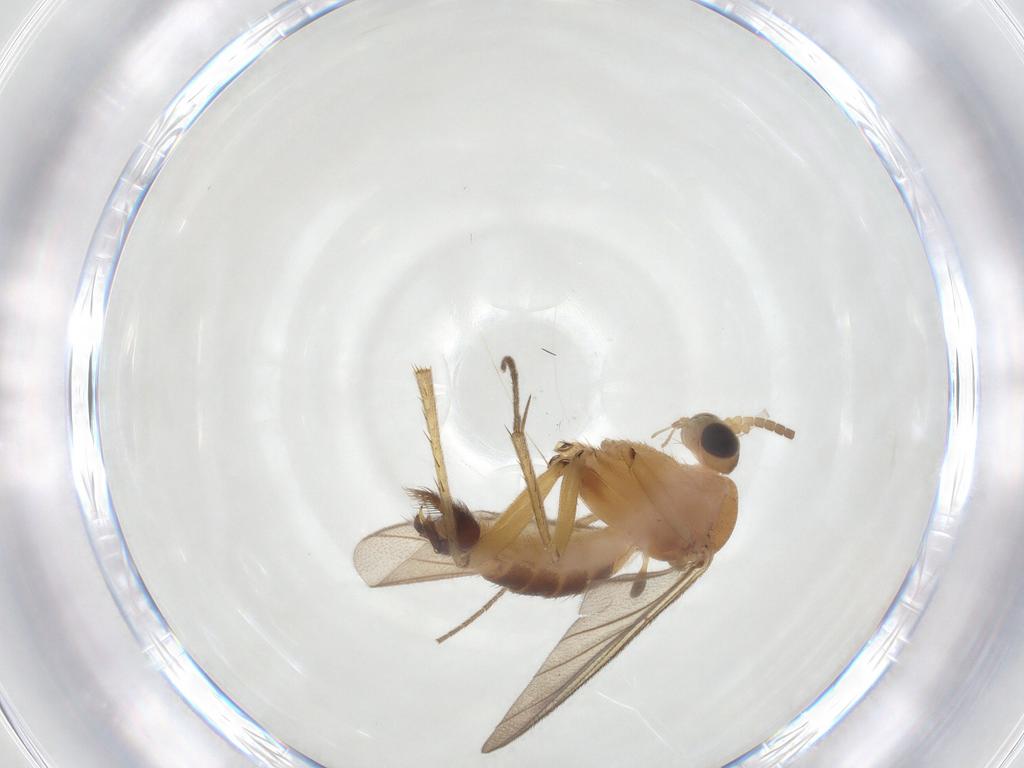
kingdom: Animalia
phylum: Arthropoda
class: Insecta
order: Diptera
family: Mycetophilidae
